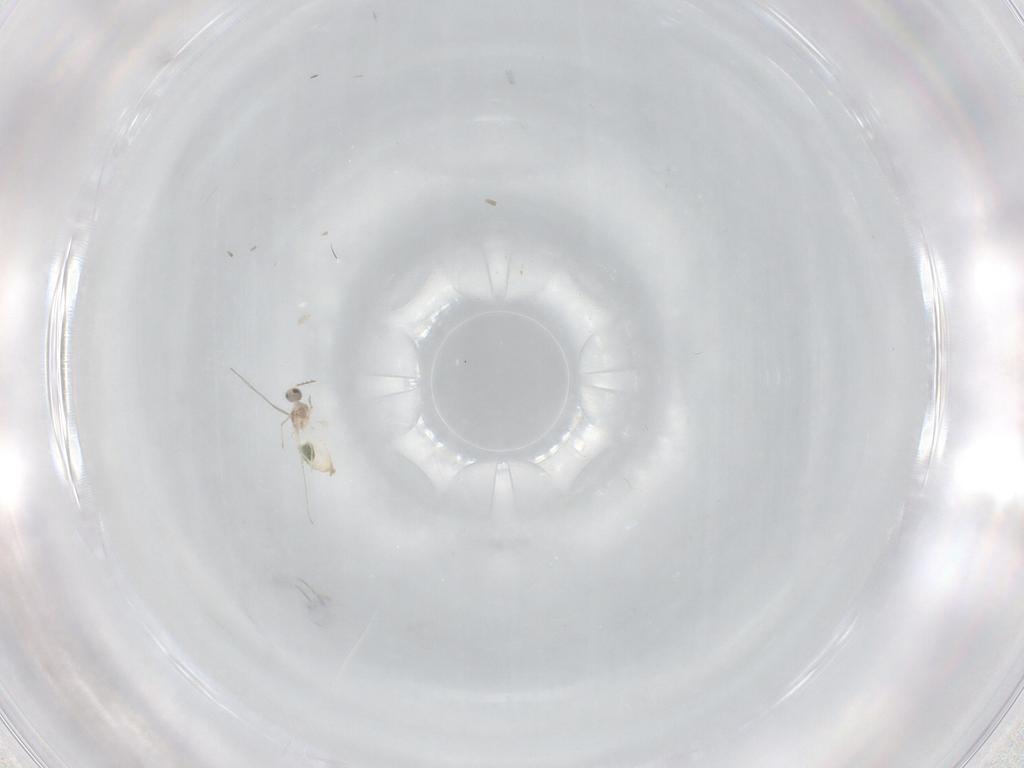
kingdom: Animalia
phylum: Arthropoda
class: Insecta
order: Diptera
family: Cecidomyiidae
